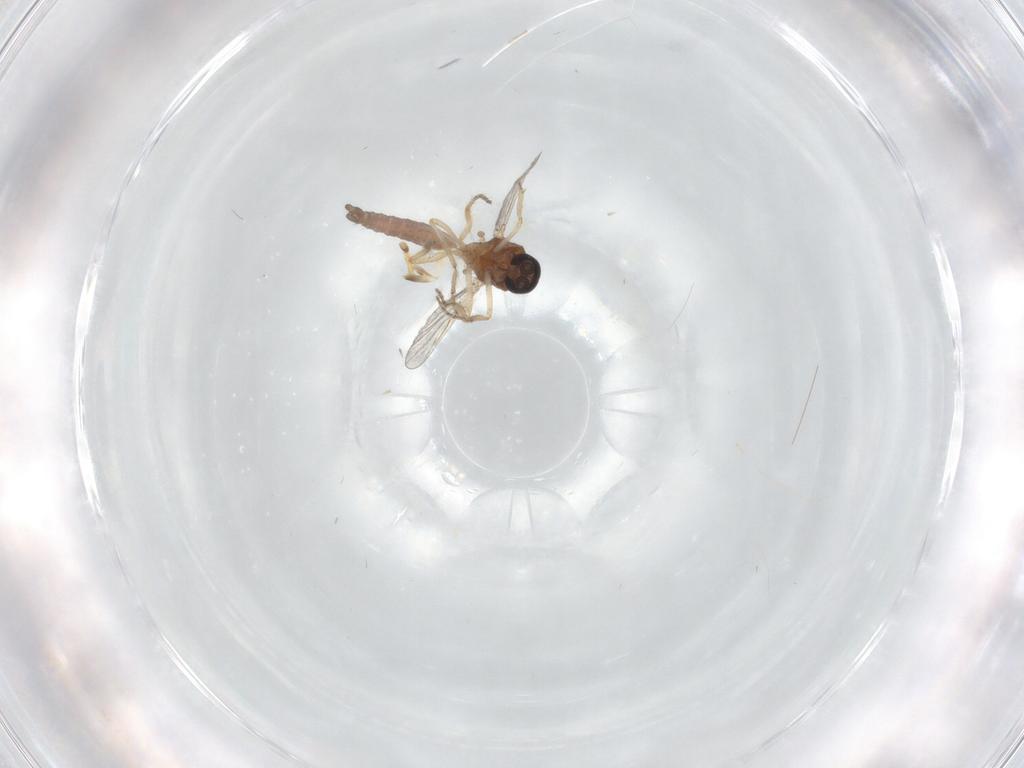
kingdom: Animalia
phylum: Arthropoda
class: Insecta
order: Diptera
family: Ceratopogonidae
